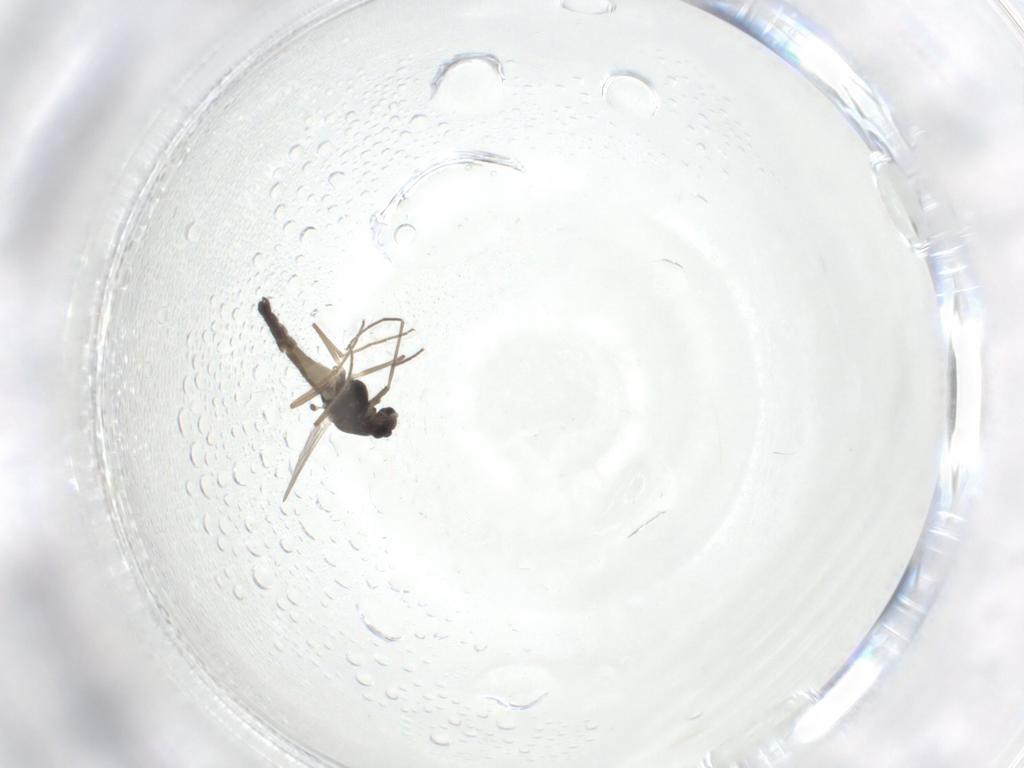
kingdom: Animalia
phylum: Arthropoda
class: Insecta
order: Diptera
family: Chironomidae
